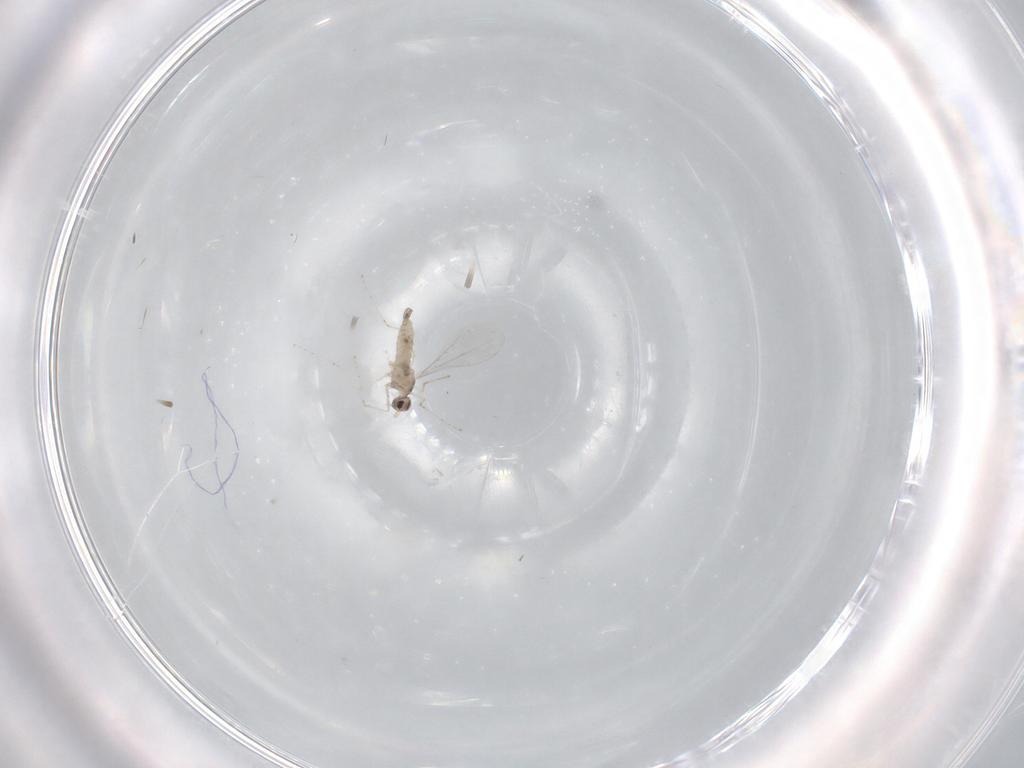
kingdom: Animalia
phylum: Arthropoda
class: Insecta
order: Diptera
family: Cecidomyiidae
